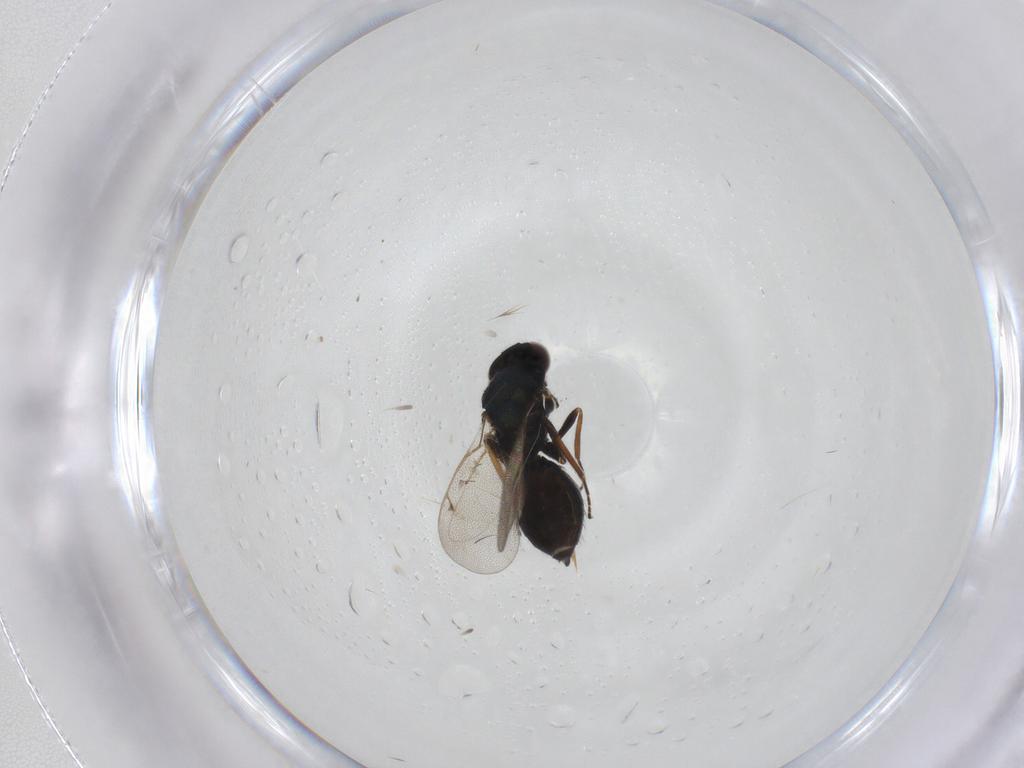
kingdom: Animalia
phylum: Arthropoda
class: Insecta
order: Hymenoptera
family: Eulophidae
